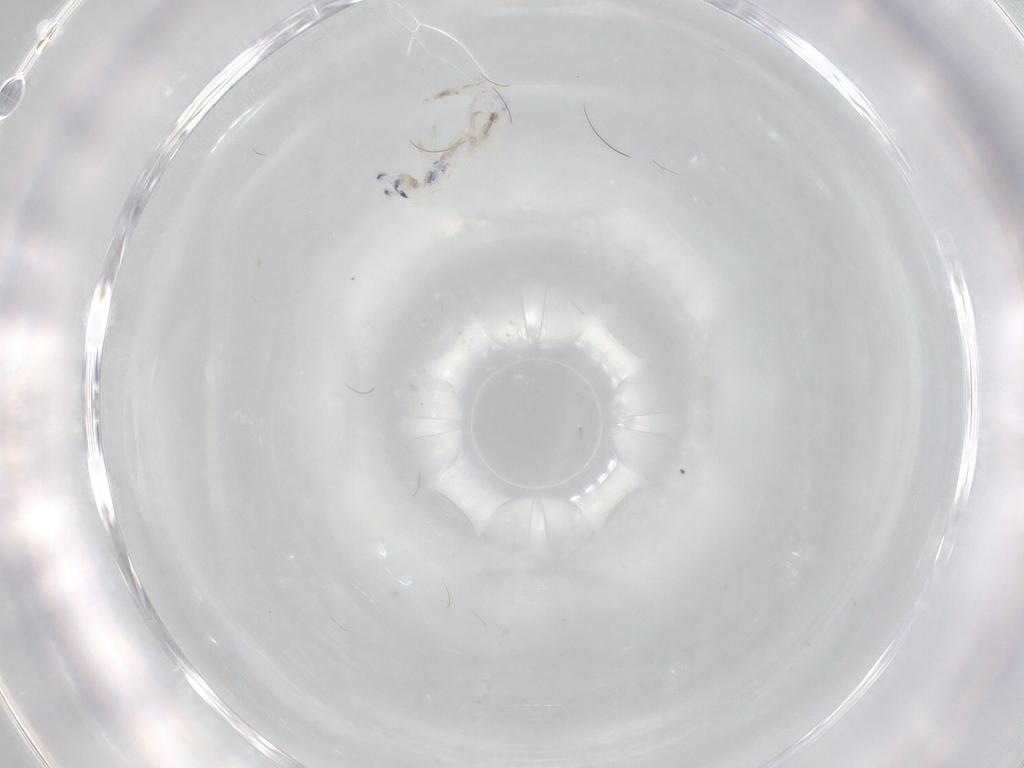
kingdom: Animalia
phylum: Arthropoda
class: Collembola
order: Entomobryomorpha
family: Entomobryidae
